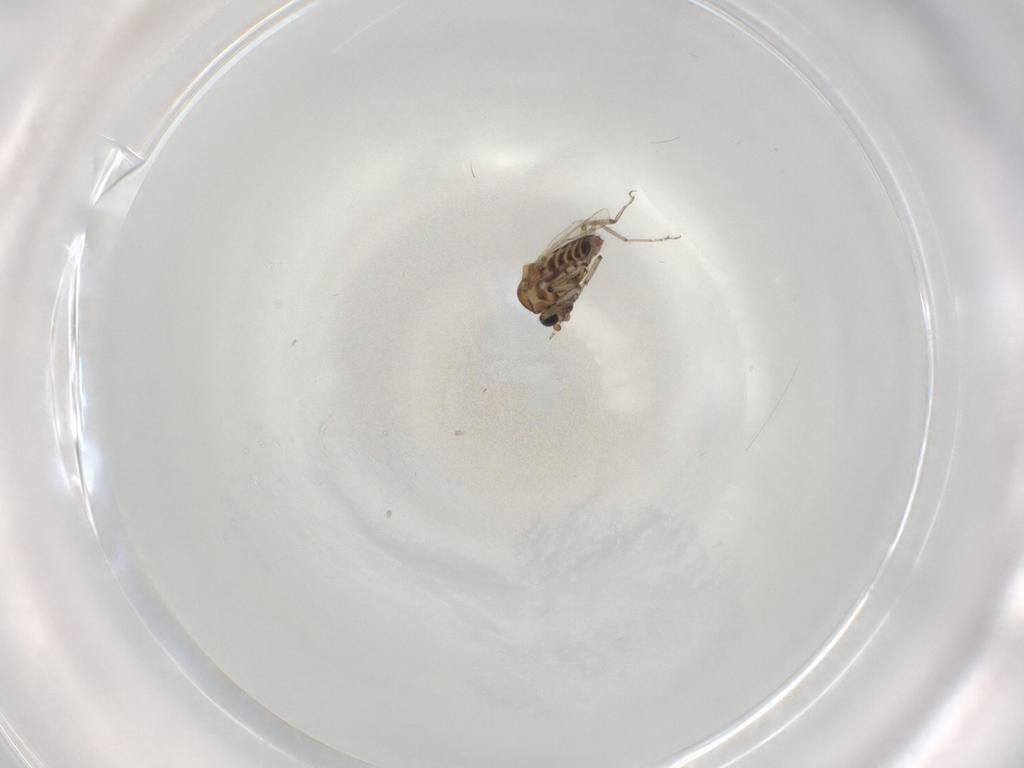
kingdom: Animalia
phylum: Arthropoda
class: Insecta
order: Diptera
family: Ceratopogonidae
